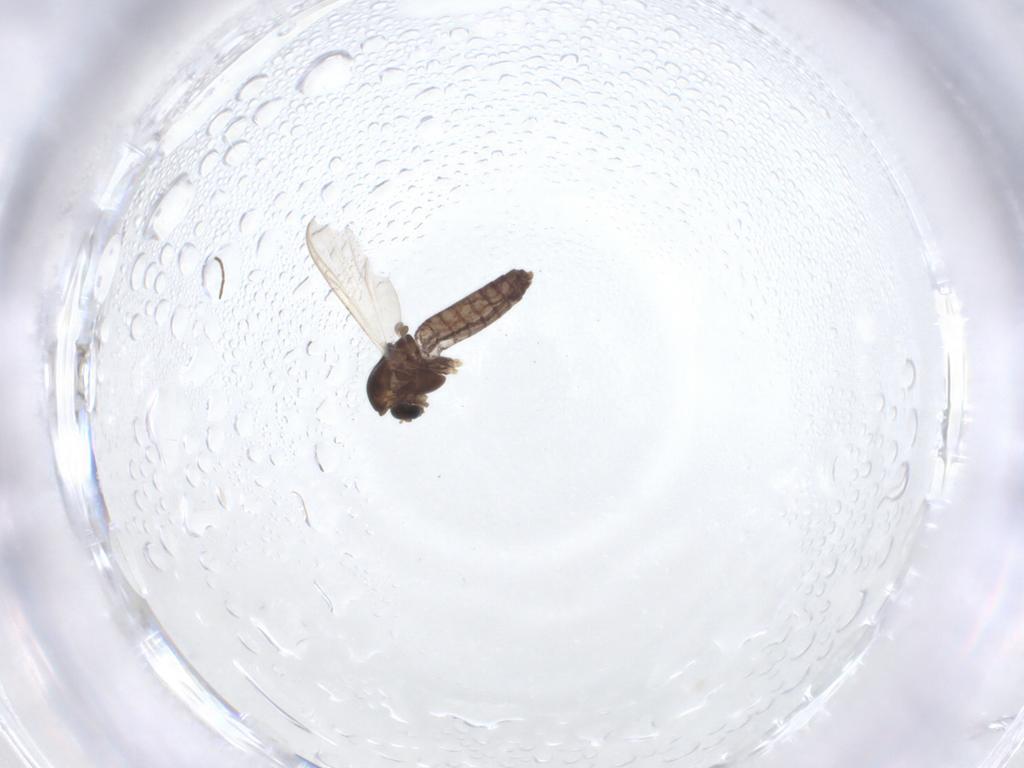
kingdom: Animalia
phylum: Arthropoda
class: Insecta
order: Diptera
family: Chironomidae
